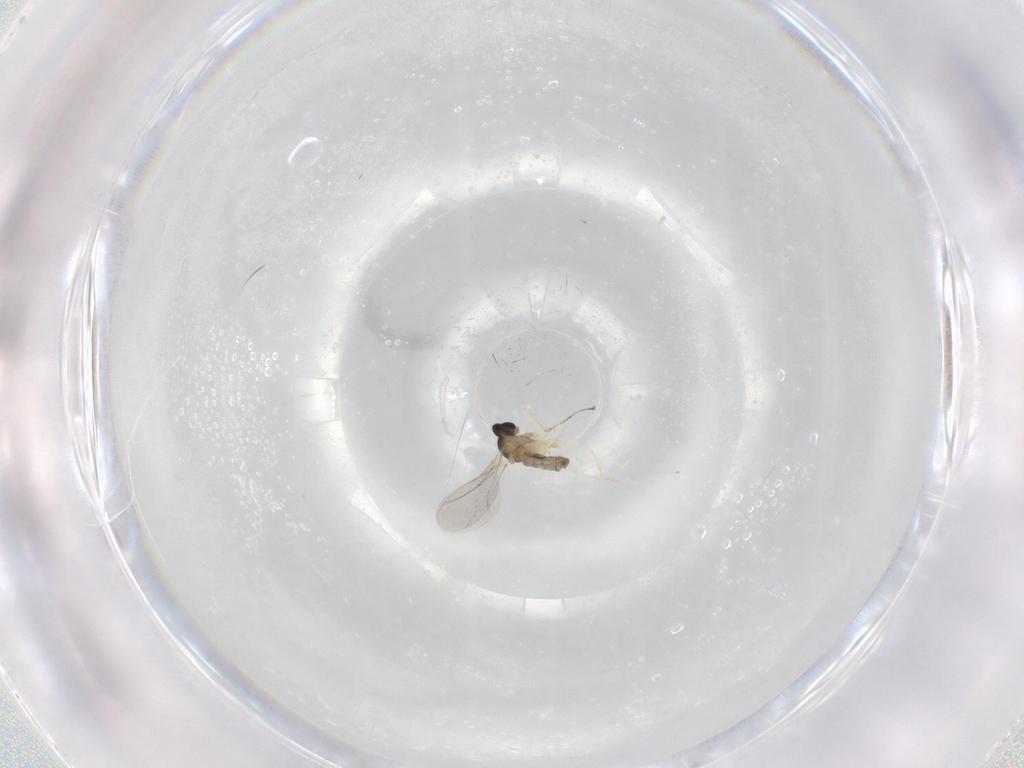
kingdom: Animalia
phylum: Arthropoda
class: Insecta
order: Diptera
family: Cecidomyiidae
